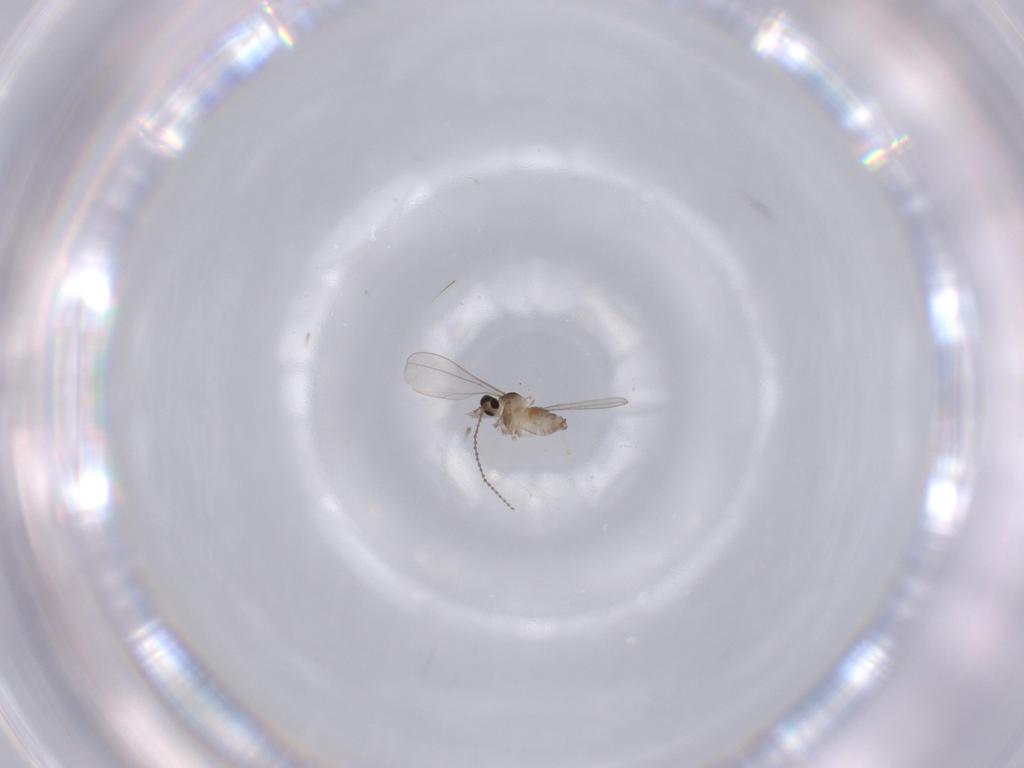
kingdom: Animalia
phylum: Arthropoda
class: Insecta
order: Diptera
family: Cecidomyiidae
